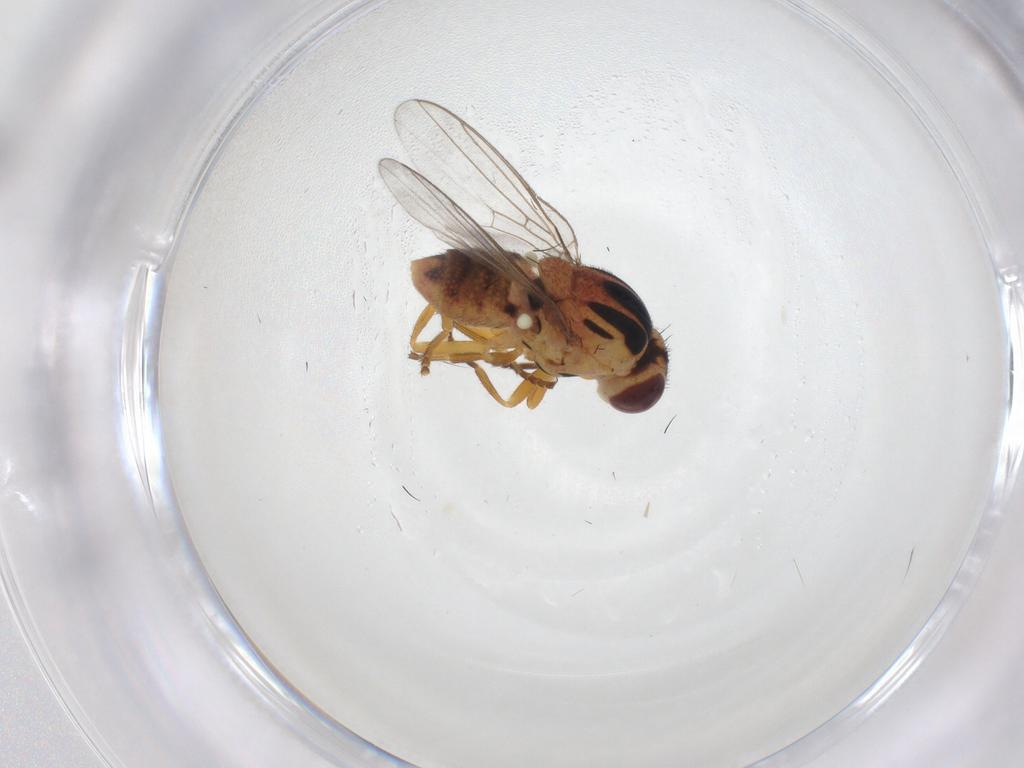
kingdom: Animalia
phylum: Arthropoda
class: Insecta
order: Diptera
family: Chloropidae
